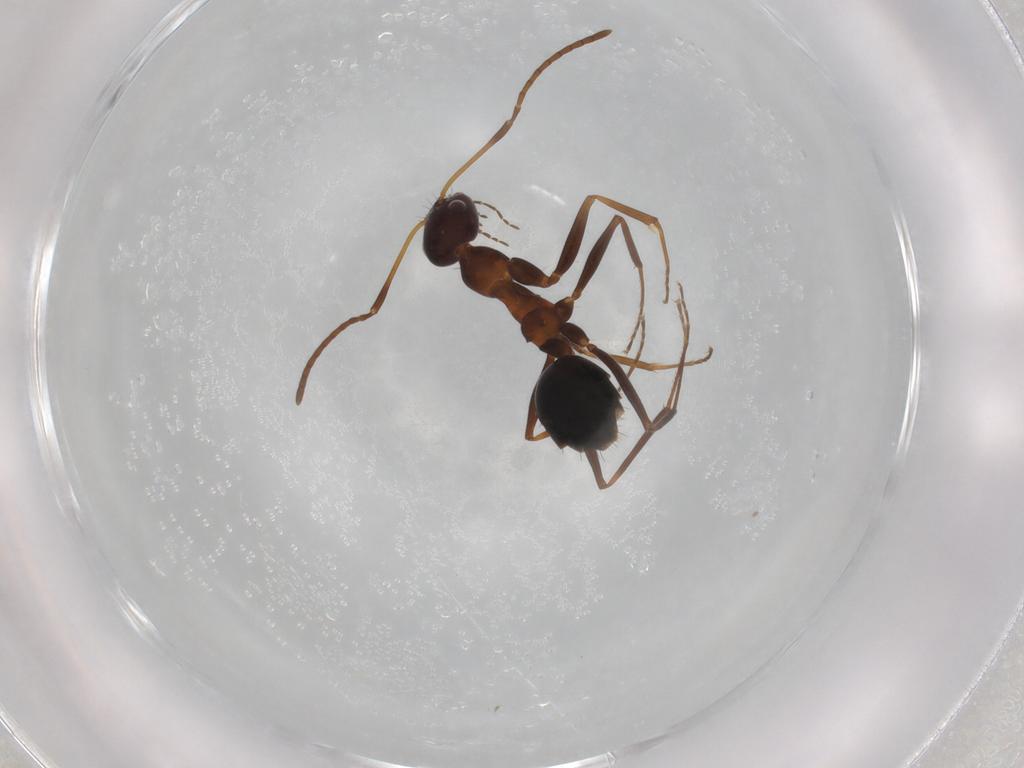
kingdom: Animalia
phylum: Arthropoda
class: Insecta
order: Hymenoptera
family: Formicidae
